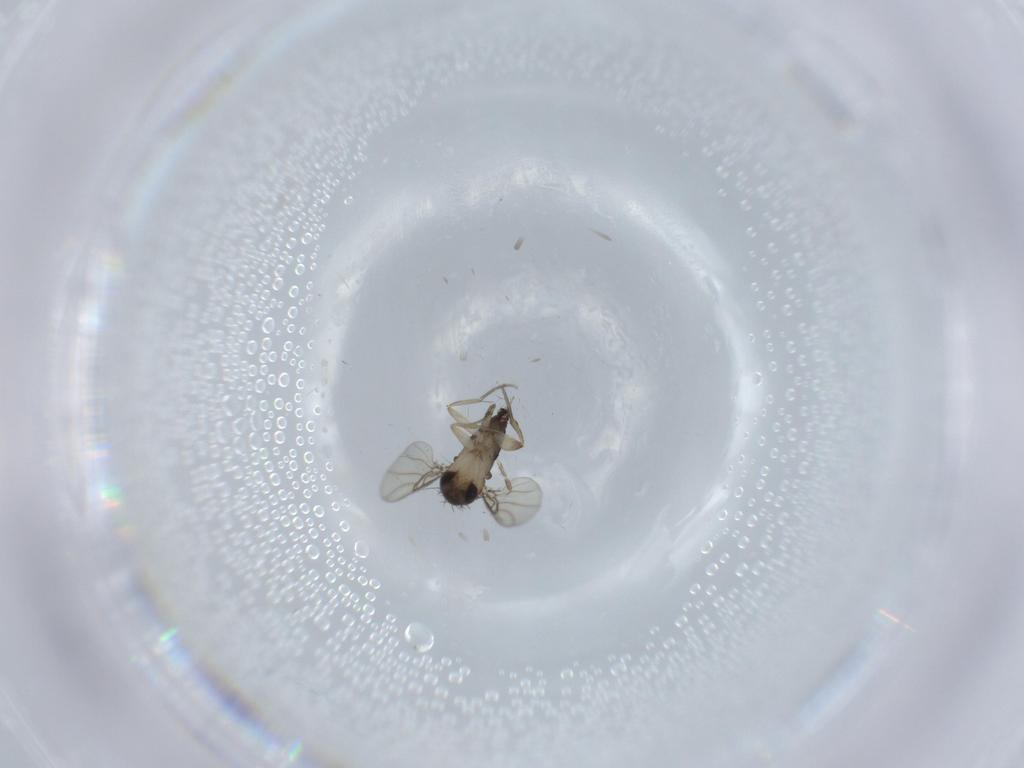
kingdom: Animalia
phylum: Arthropoda
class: Insecta
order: Diptera
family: Phoridae
